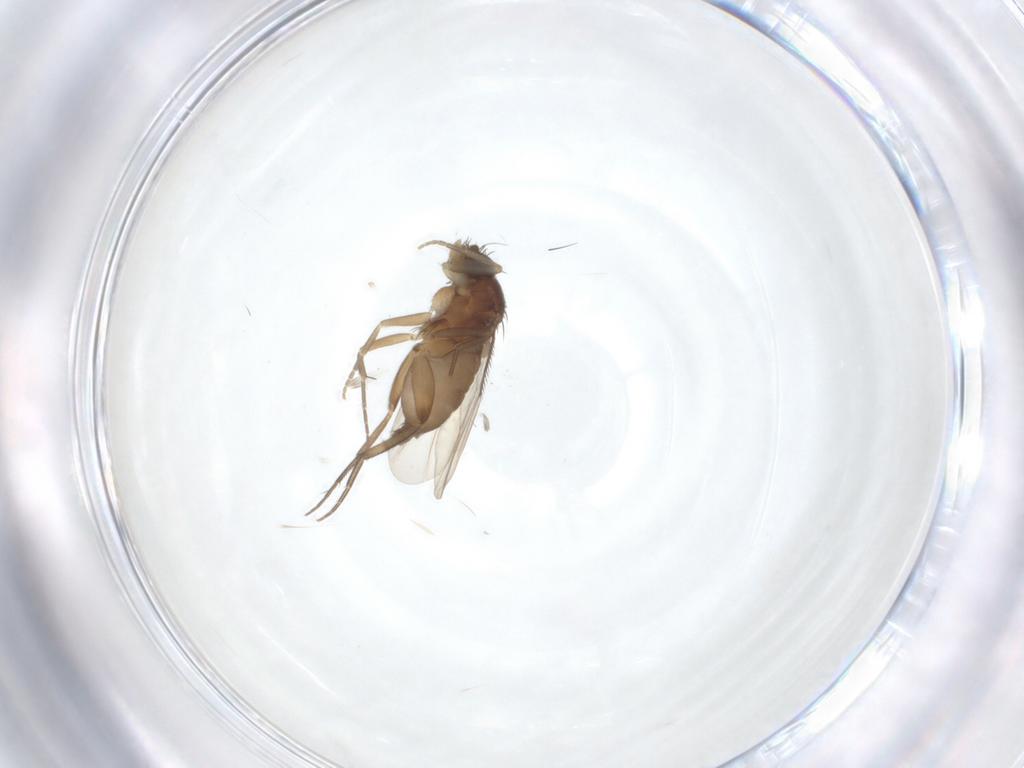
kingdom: Animalia
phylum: Arthropoda
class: Insecta
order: Diptera
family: Phoridae
